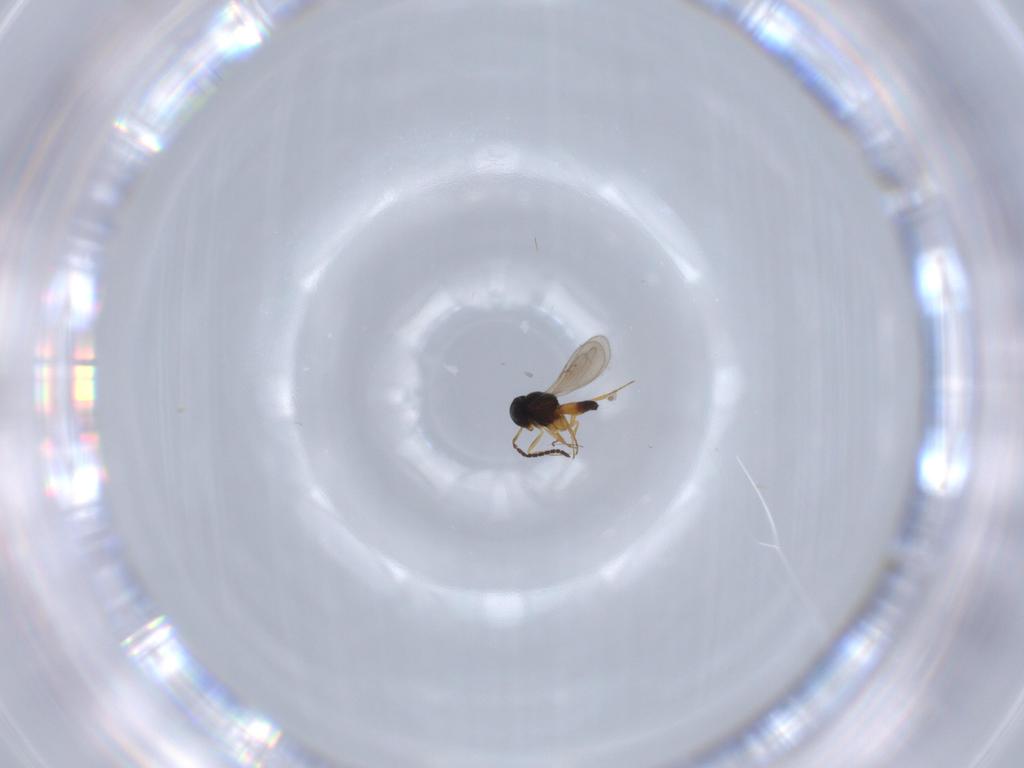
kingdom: Animalia
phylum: Arthropoda
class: Insecta
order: Hymenoptera
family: Scelionidae
